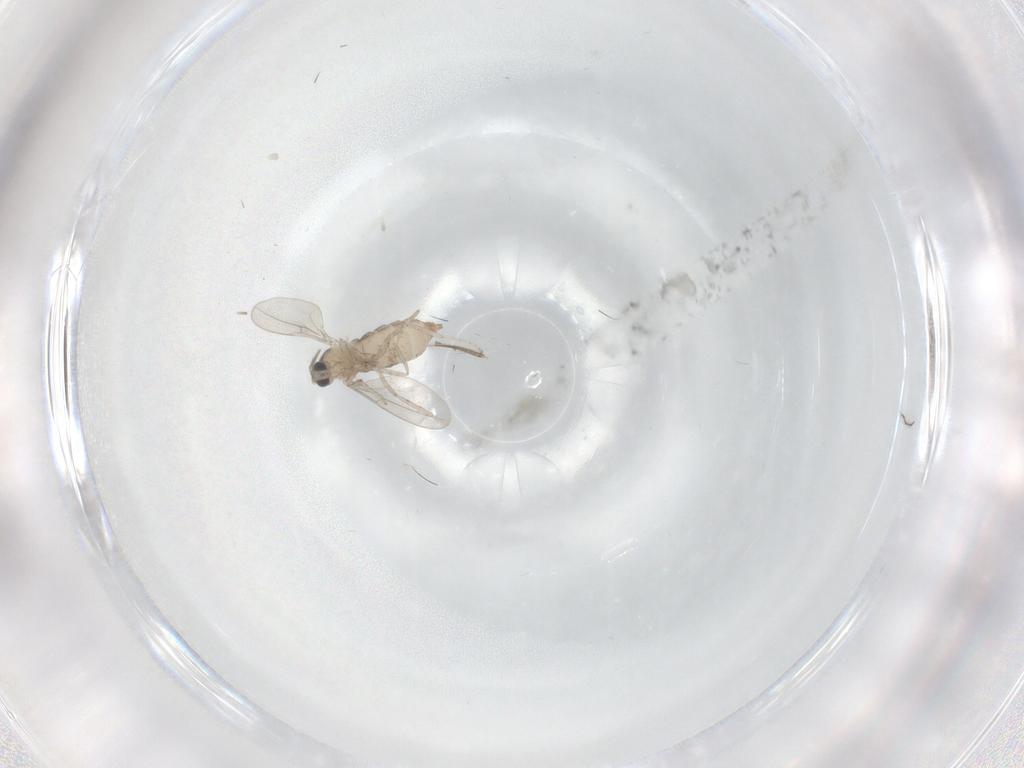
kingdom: Animalia
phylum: Arthropoda
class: Insecta
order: Diptera
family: Cecidomyiidae
